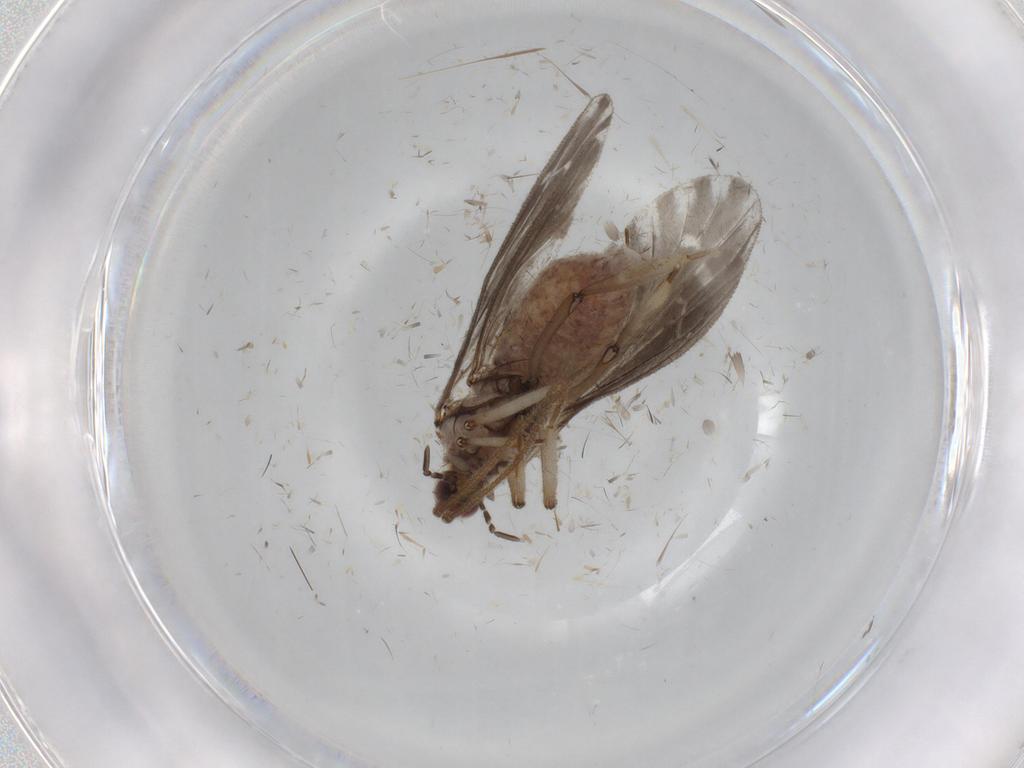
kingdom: Animalia
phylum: Arthropoda
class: Insecta
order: Neuroptera
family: Coniopterygidae
